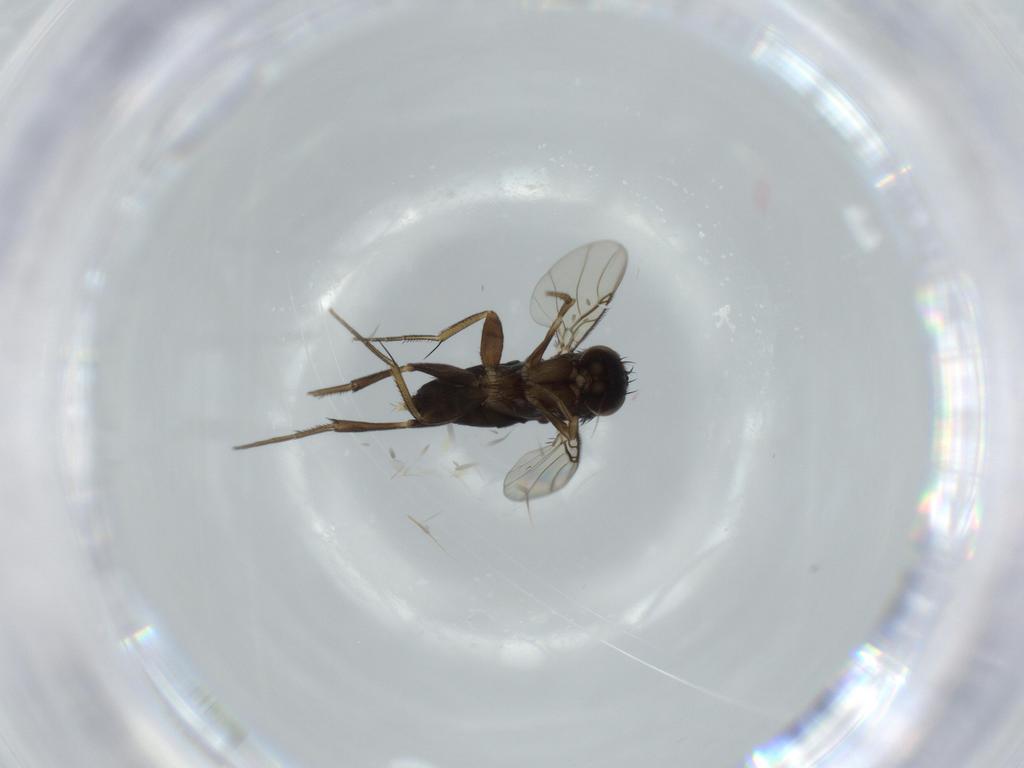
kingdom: Animalia
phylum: Arthropoda
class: Insecta
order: Diptera
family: Phoridae
